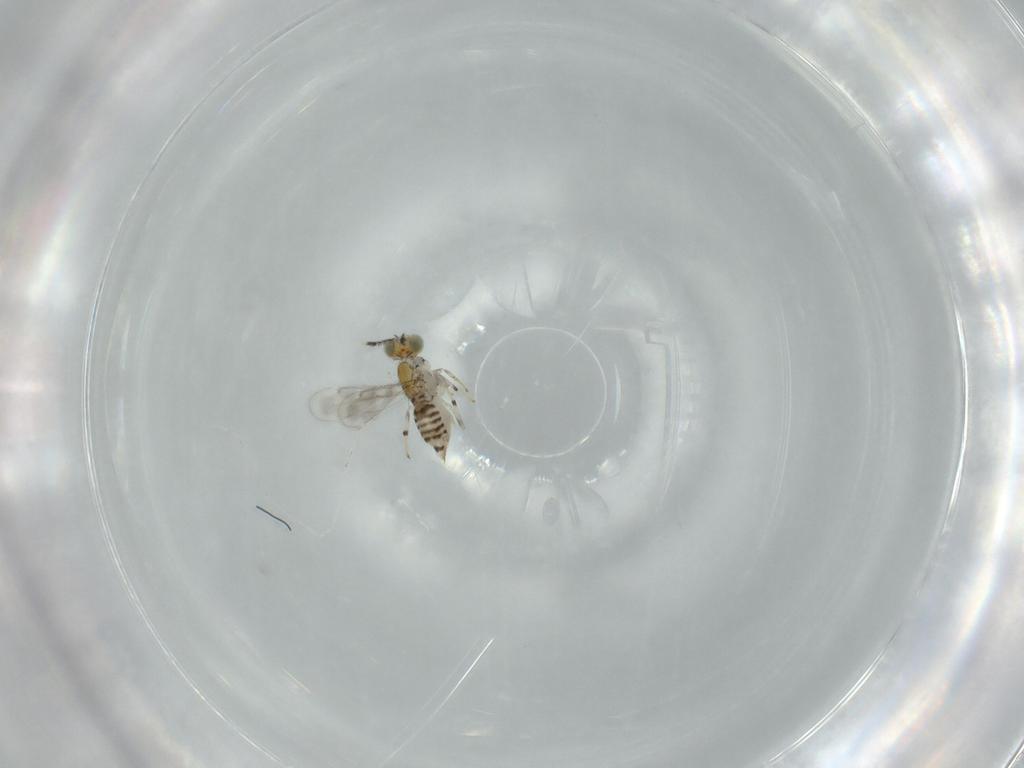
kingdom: Animalia
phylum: Arthropoda
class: Insecta
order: Hymenoptera
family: Aphelinidae
